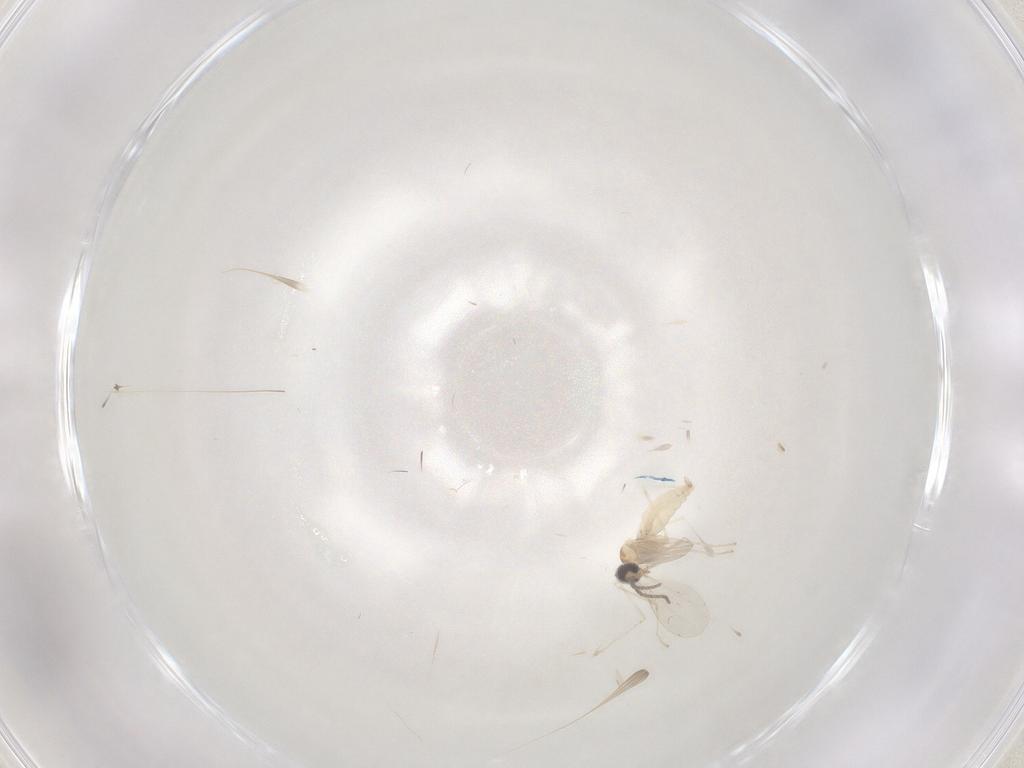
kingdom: Animalia
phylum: Arthropoda
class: Insecta
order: Diptera
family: Cecidomyiidae
